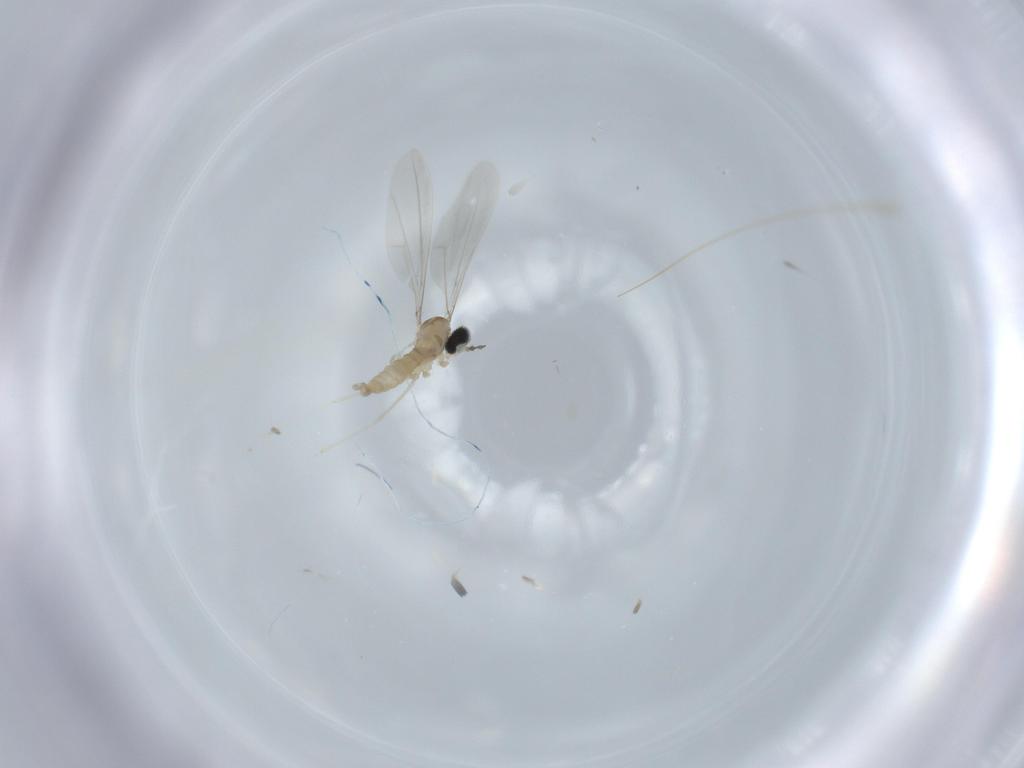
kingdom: Animalia
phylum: Arthropoda
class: Insecta
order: Diptera
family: Cecidomyiidae
